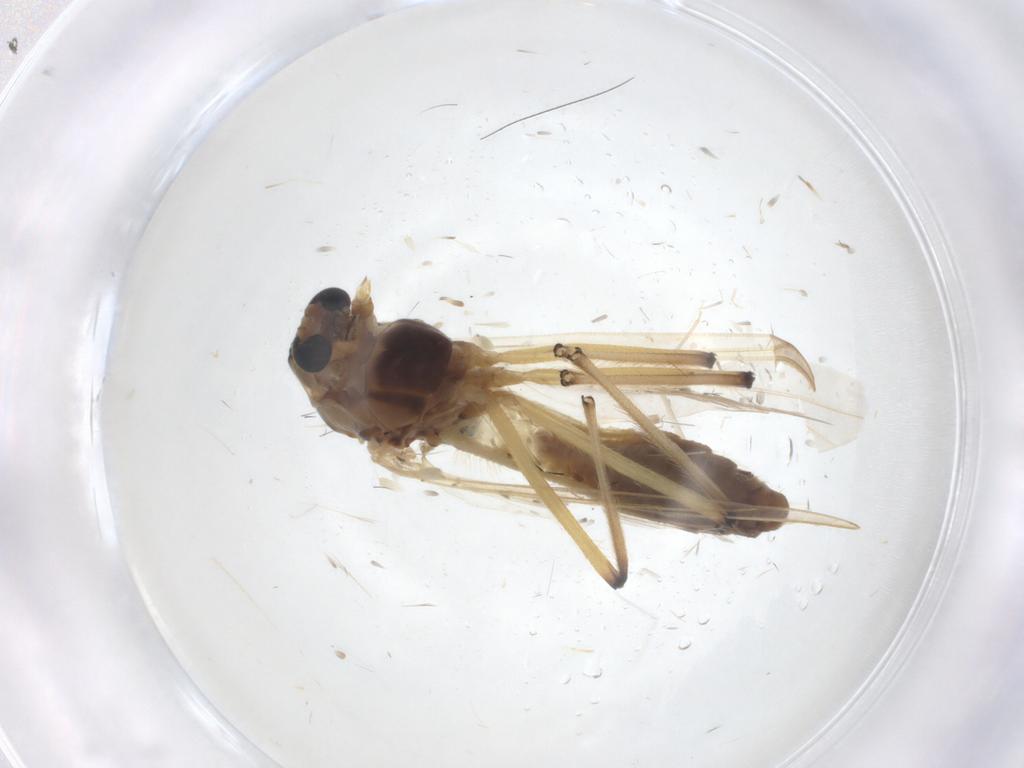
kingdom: Animalia
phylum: Arthropoda
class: Insecta
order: Diptera
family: Chironomidae
